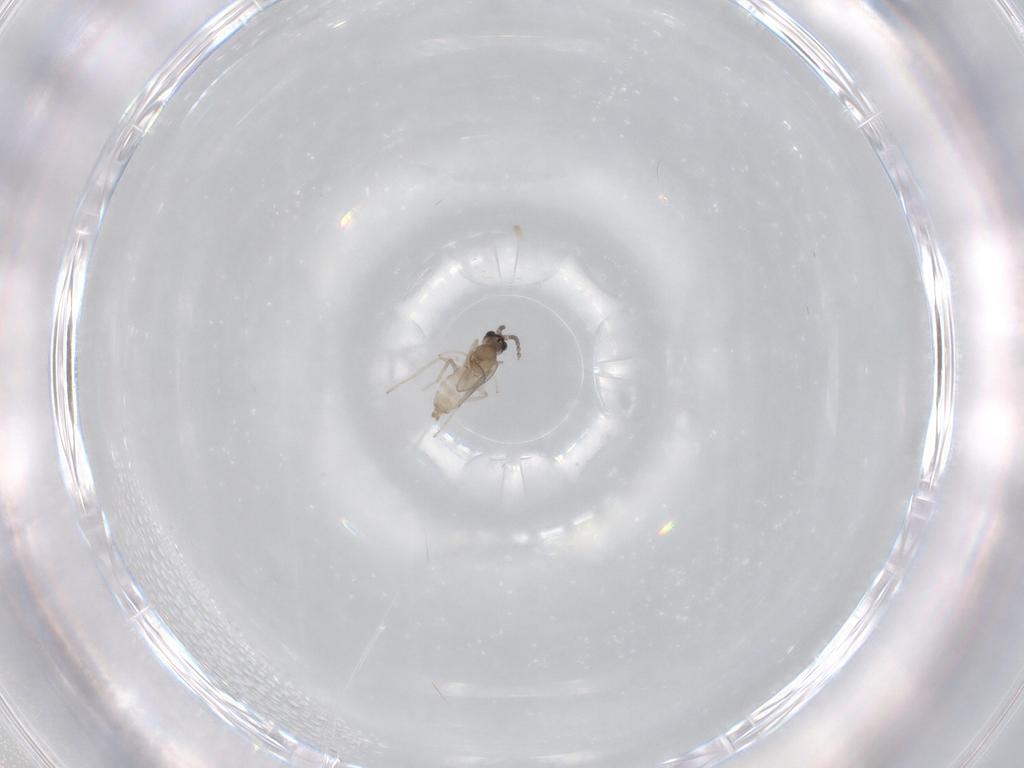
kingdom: Animalia
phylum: Arthropoda
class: Insecta
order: Diptera
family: Cecidomyiidae
